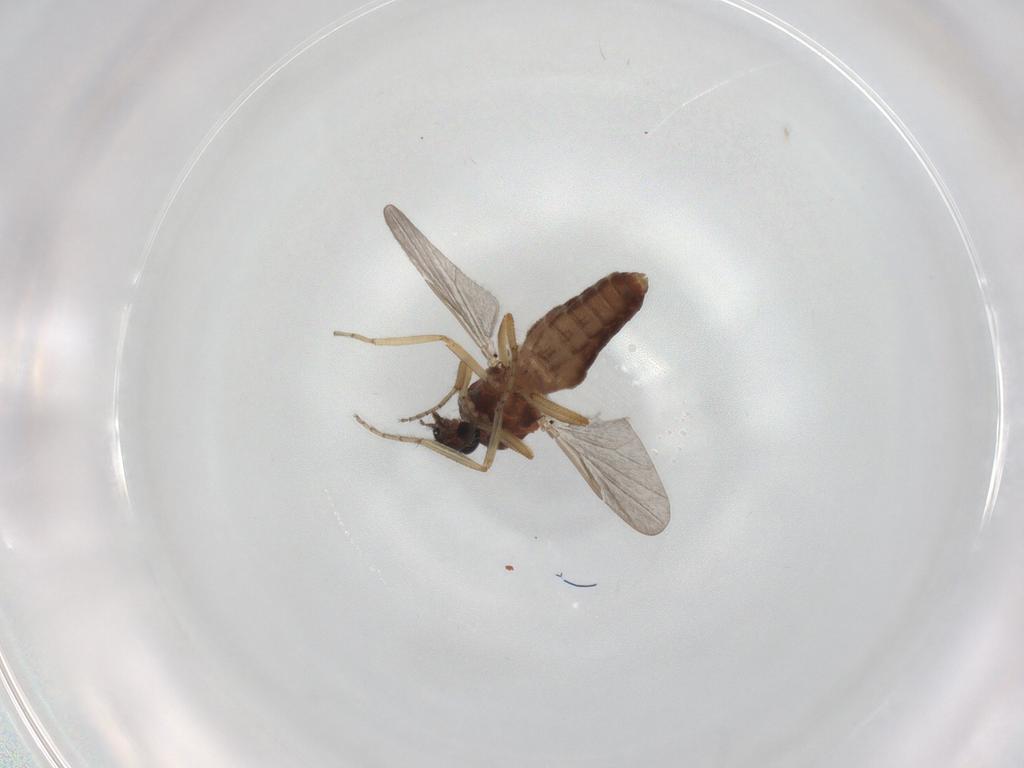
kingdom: Animalia
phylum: Arthropoda
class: Insecta
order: Diptera
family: Ceratopogonidae
